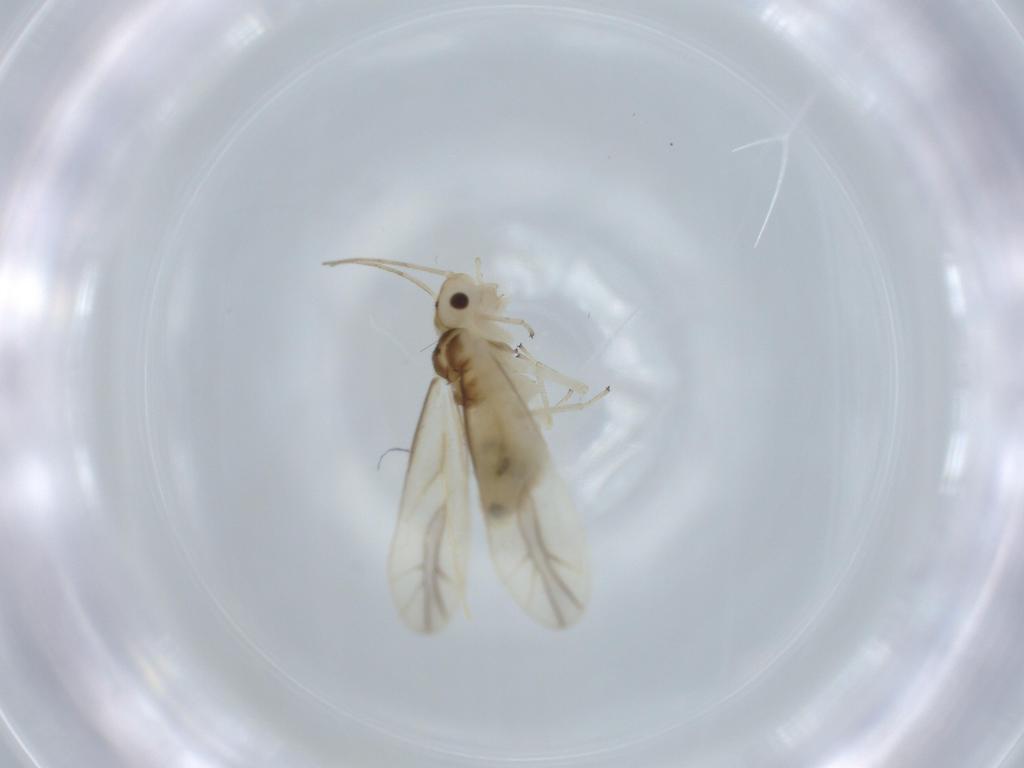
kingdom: Animalia
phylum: Arthropoda
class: Insecta
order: Psocodea
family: Caeciliusidae
